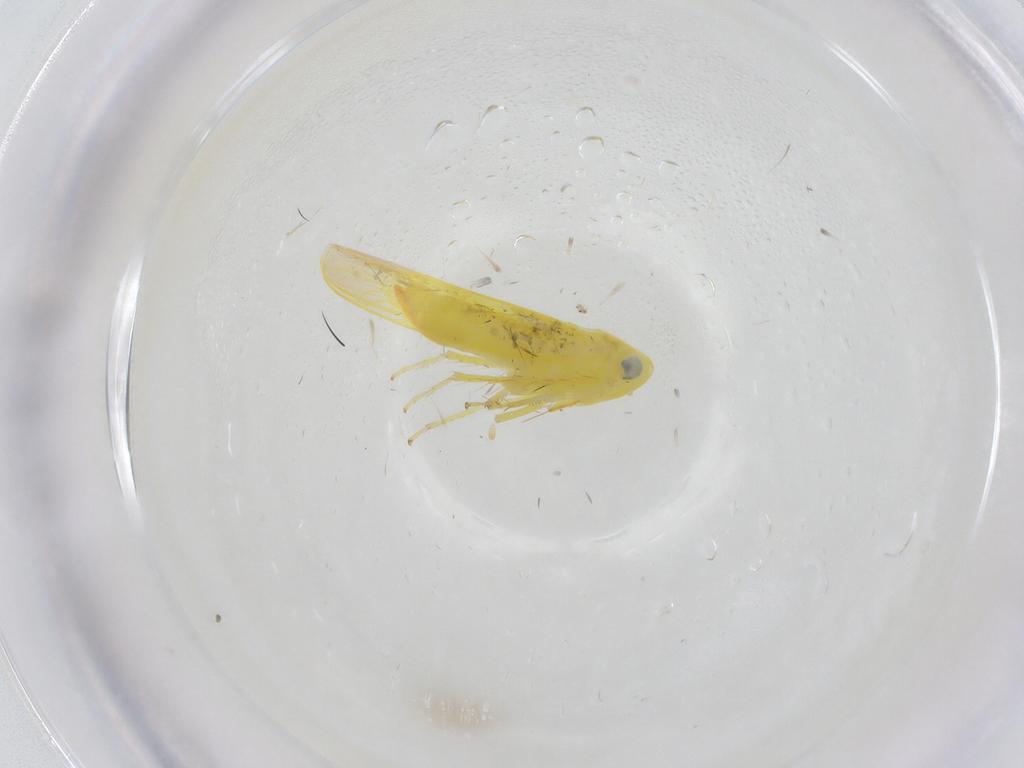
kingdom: Animalia
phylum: Arthropoda
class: Insecta
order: Hemiptera
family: Cicadellidae
